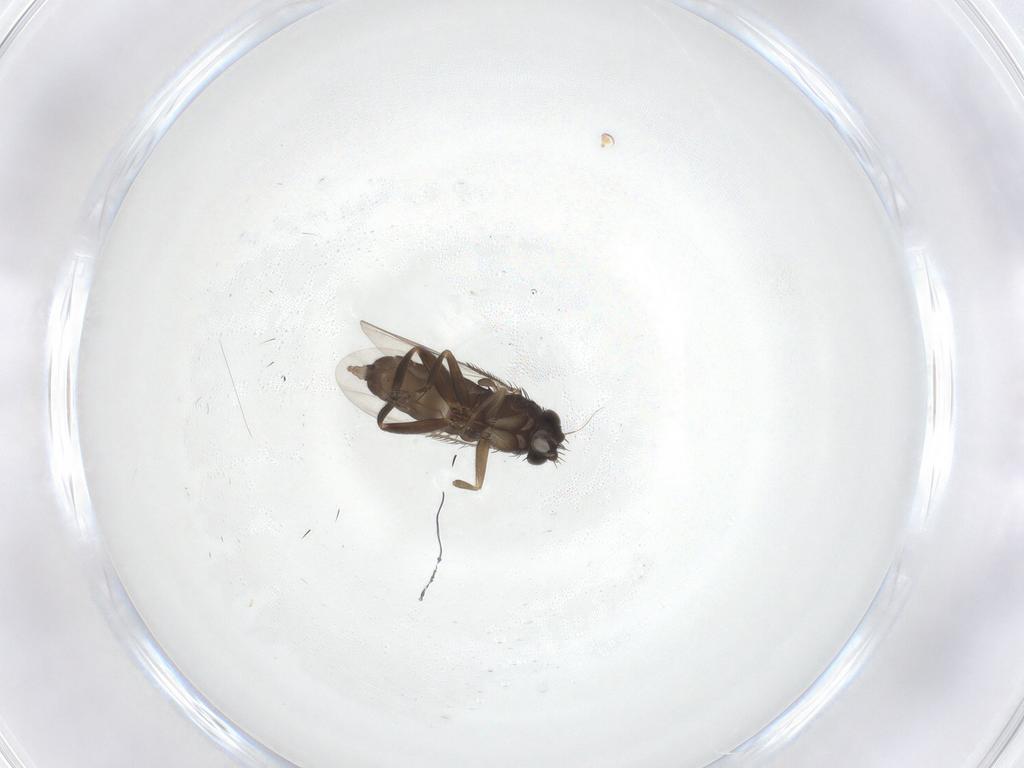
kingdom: Animalia
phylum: Arthropoda
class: Insecta
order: Diptera
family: Phoridae
